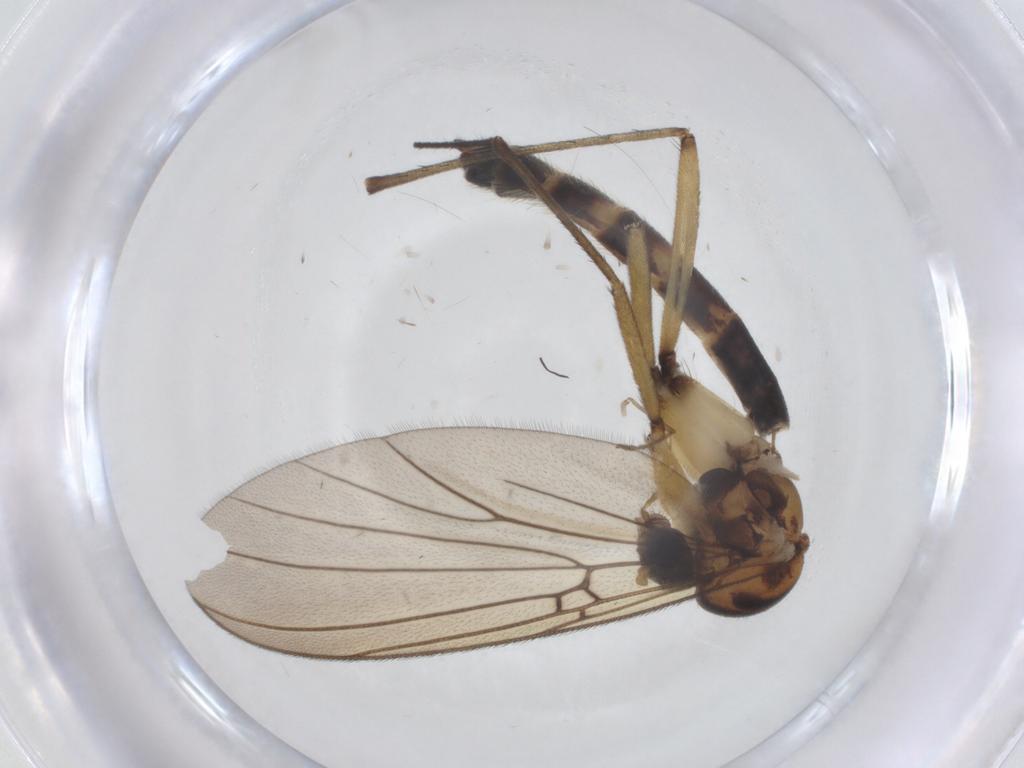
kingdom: Animalia
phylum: Arthropoda
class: Insecta
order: Diptera
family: Mycetophilidae
